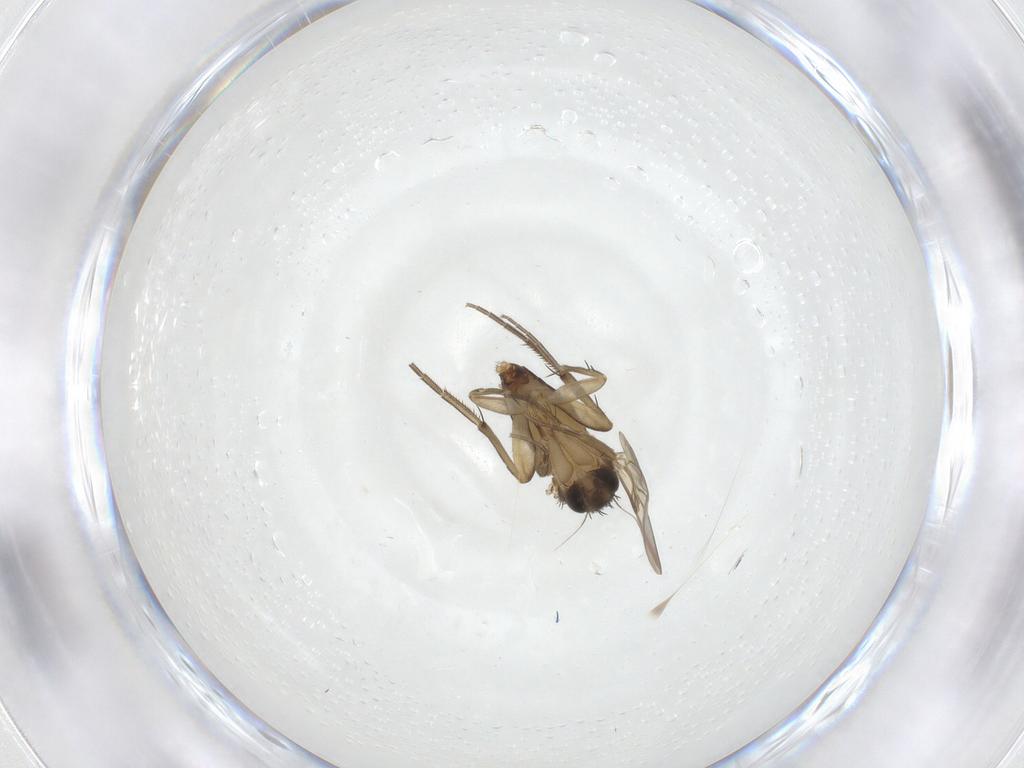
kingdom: Animalia
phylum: Arthropoda
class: Insecta
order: Diptera
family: Phoridae
